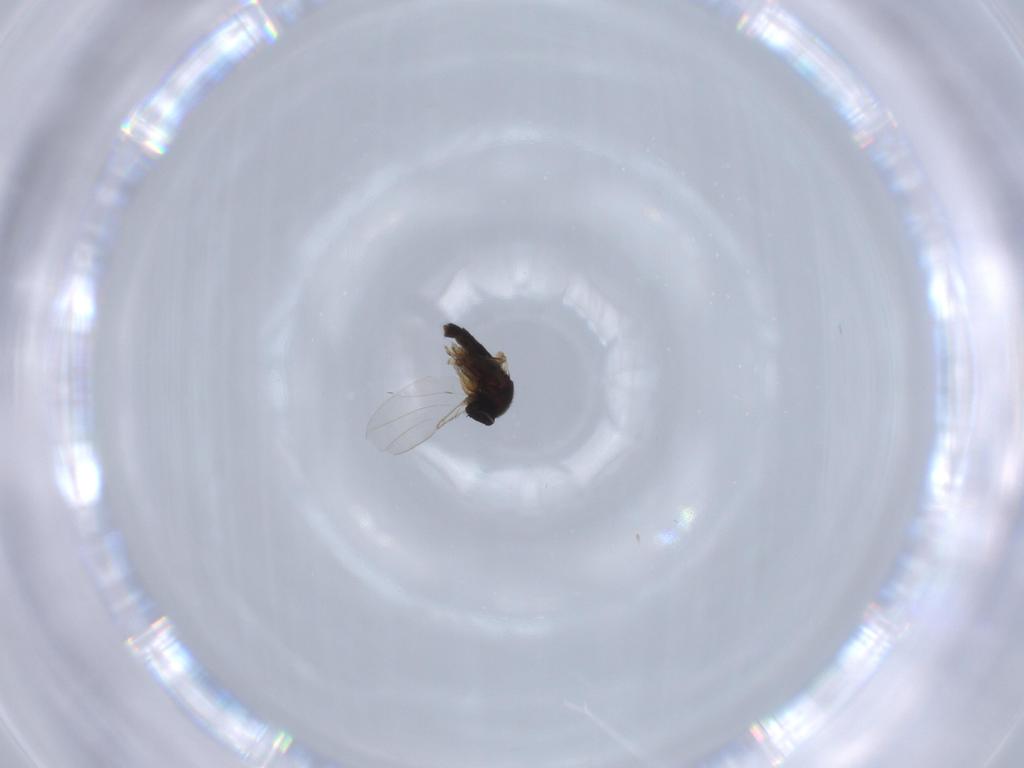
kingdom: Animalia
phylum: Arthropoda
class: Insecta
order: Diptera
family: Phoridae
